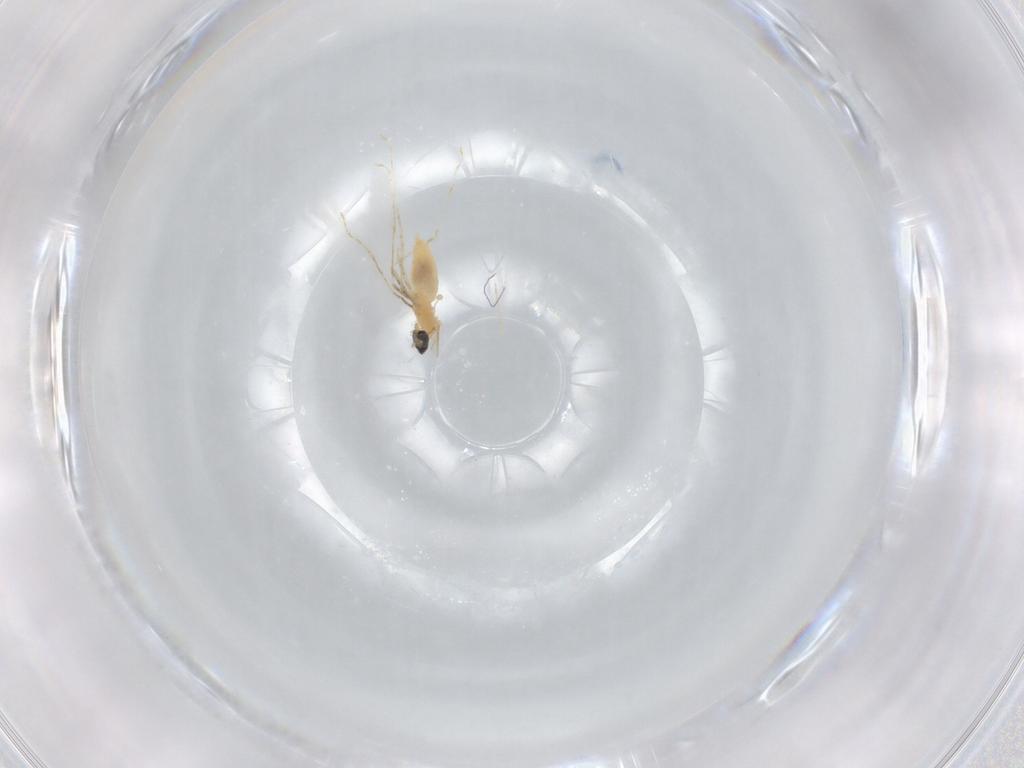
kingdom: Animalia
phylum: Arthropoda
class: Insecta
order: Diptera
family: Cecidomyiidae
